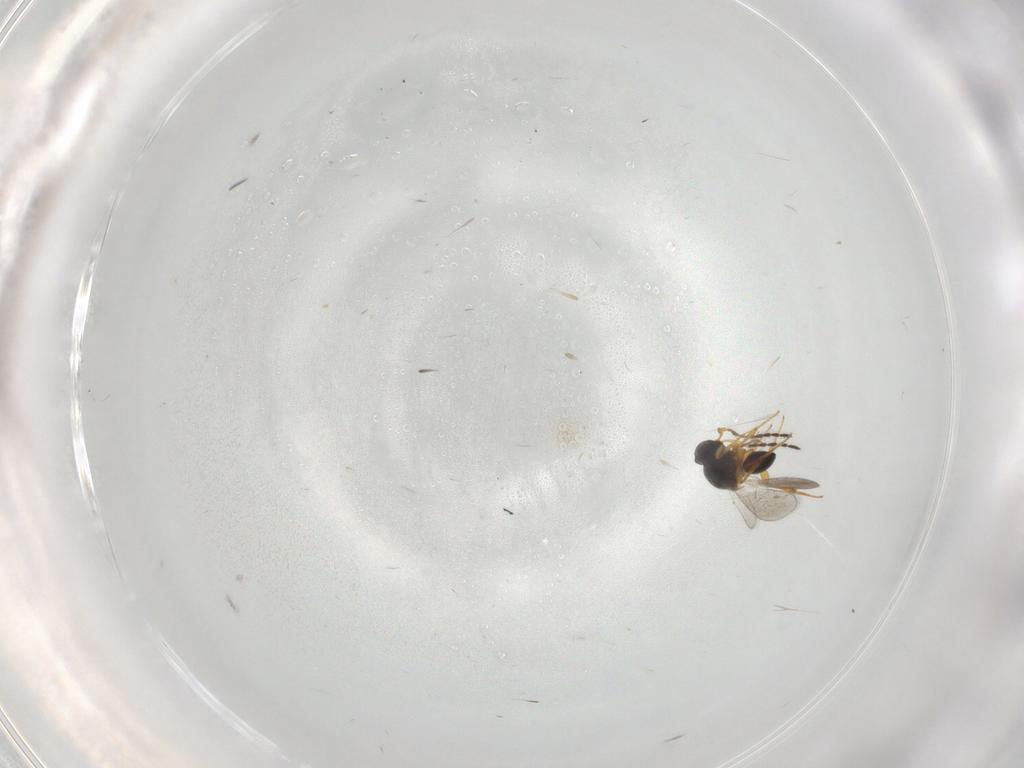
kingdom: Animalia
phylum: Arthropoda
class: Insecta
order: Hymenoptera
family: Platygastridae
